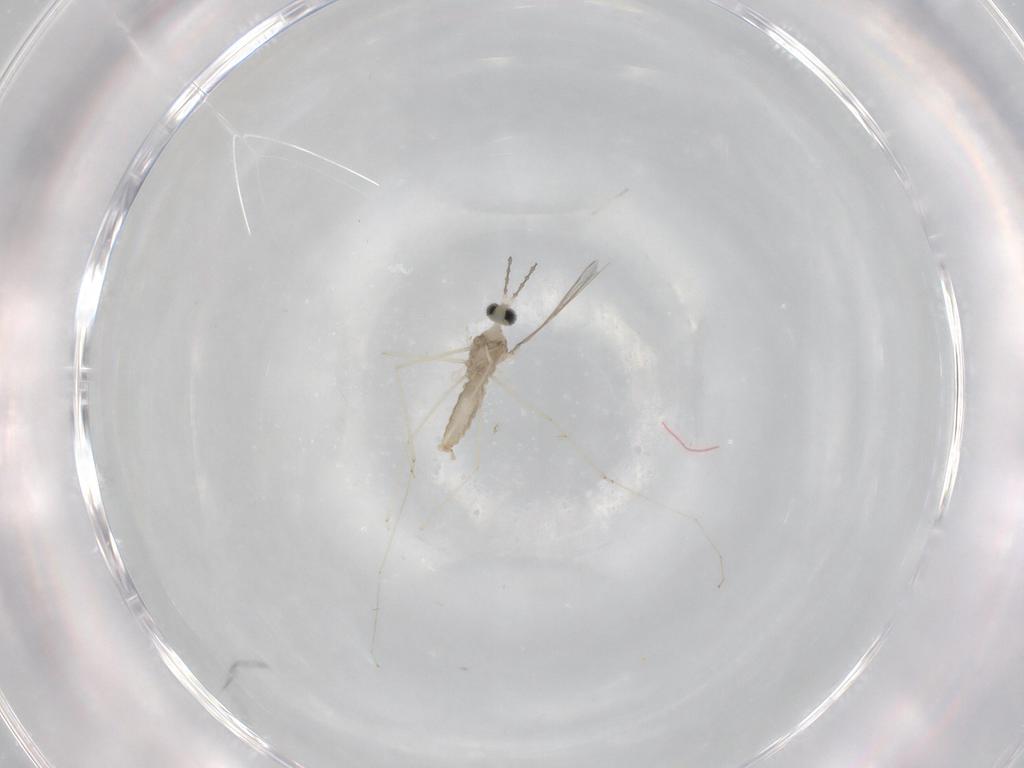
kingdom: Animalia
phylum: Arthropoda
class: Insecta
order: Diptera
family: Cecidomyiidae
